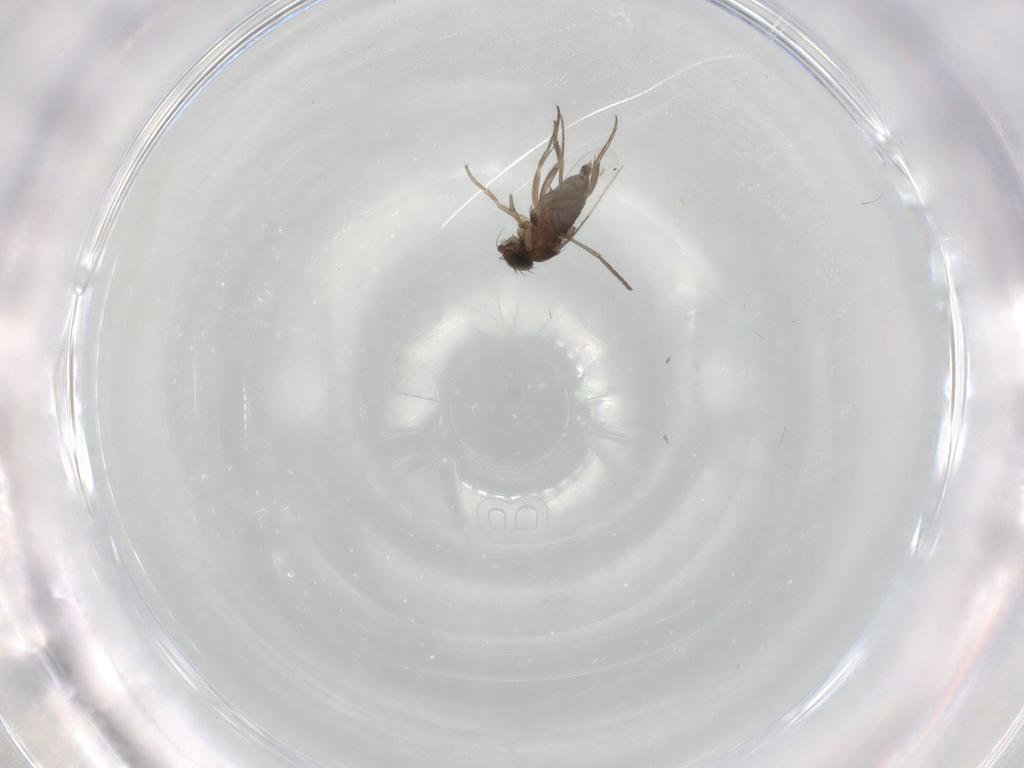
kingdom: Animalia
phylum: Arthropoda
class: Insecta
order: Diptera
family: Phoridae
